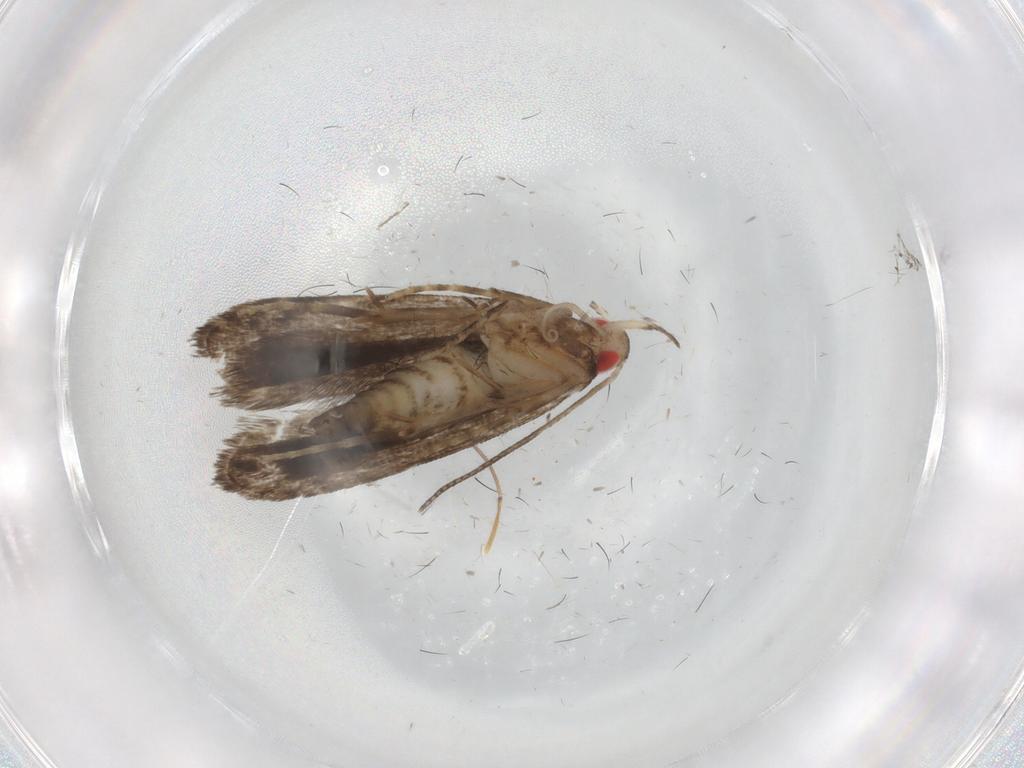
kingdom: Animalia
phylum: Arthropoda
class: Insecta
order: Lepidoptera
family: Gelechiidae
